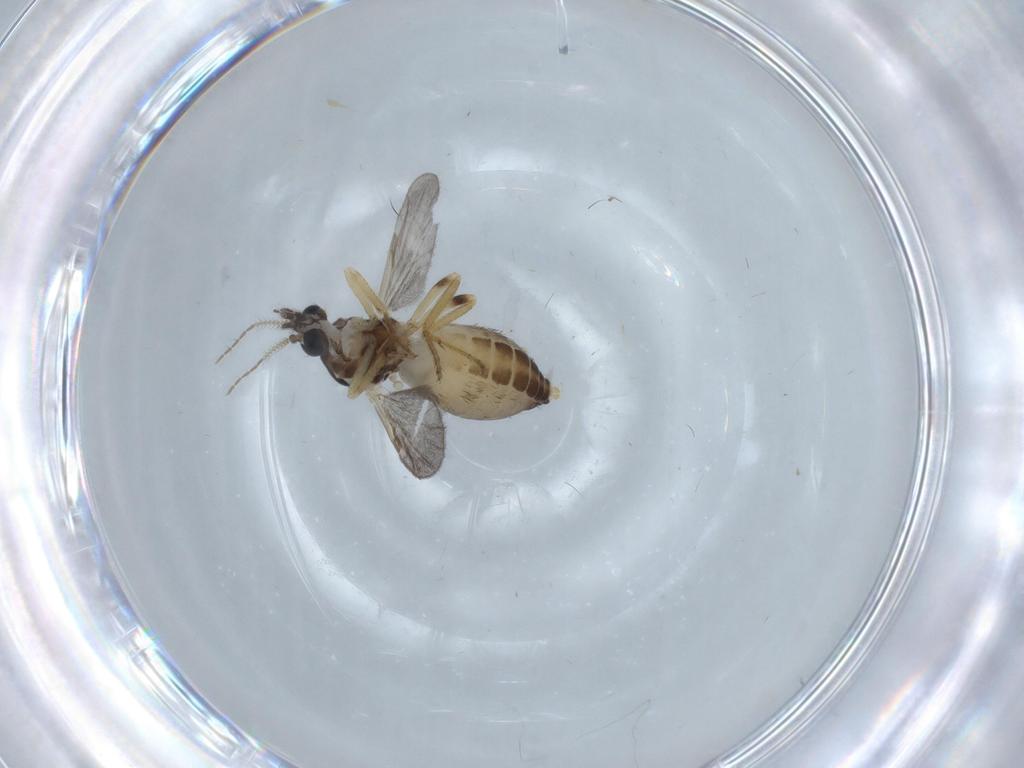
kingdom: Animalia
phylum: Arthropoda
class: Insecta
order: Diptera
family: Ceratopogonidae
